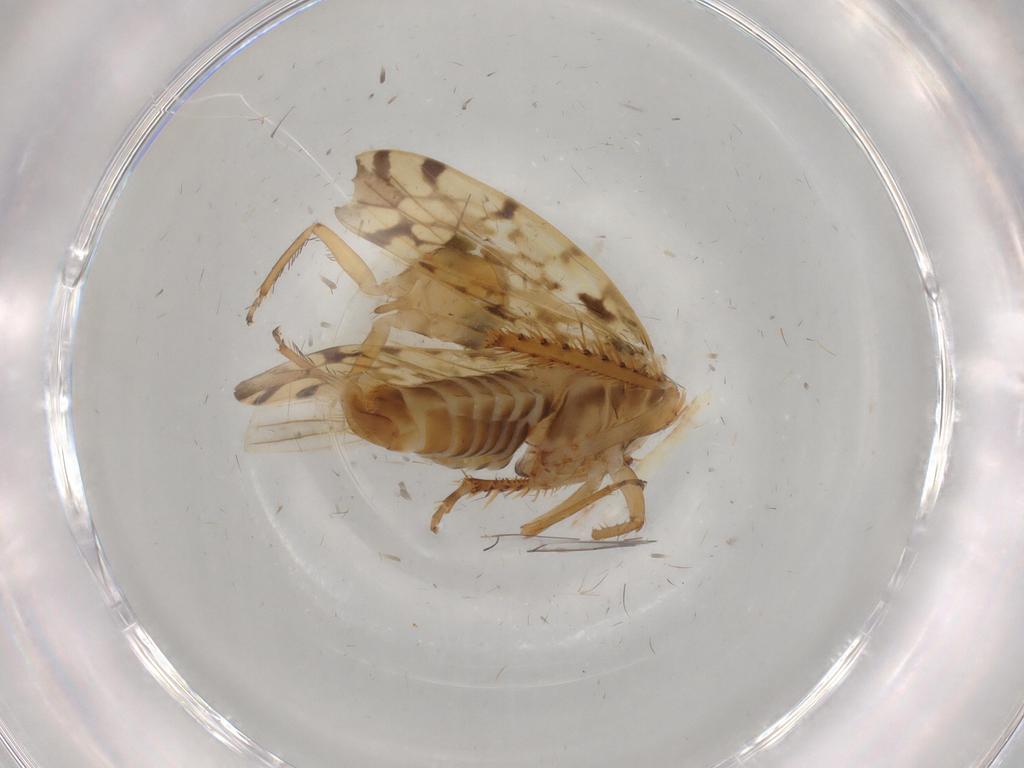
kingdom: Animalia
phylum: Arthropoda
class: Insecta
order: Hemiptera
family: Cicadellidae
